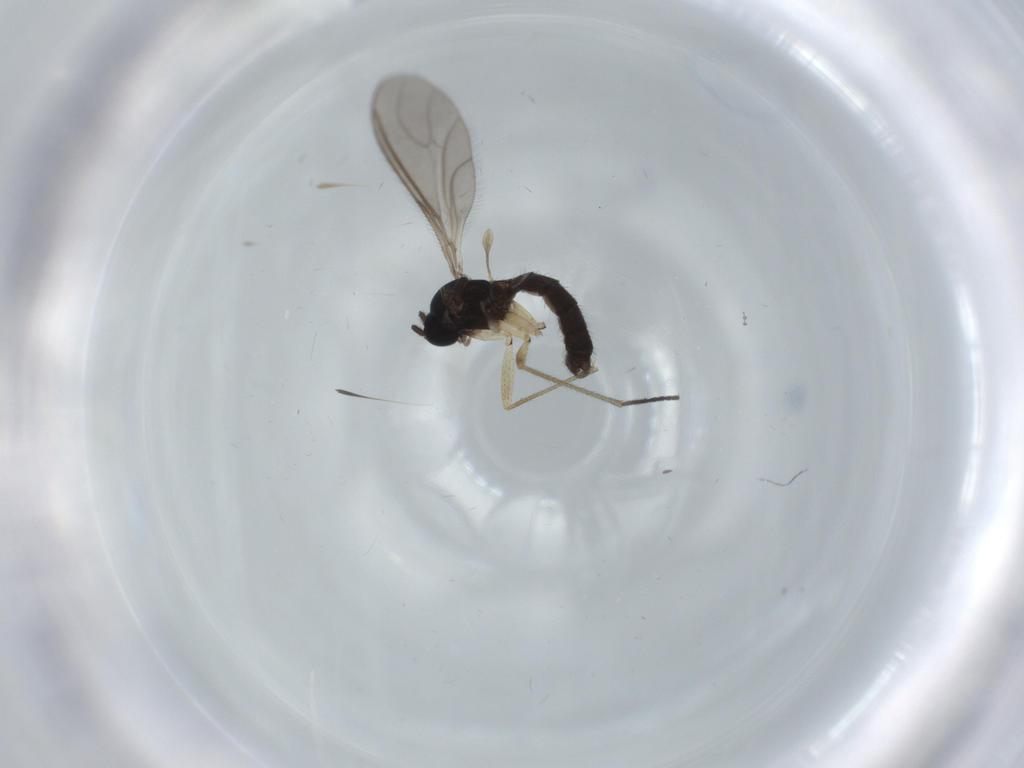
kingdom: Animalia
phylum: Arthropoda
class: Insecta
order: Diptera
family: Sciaridae
